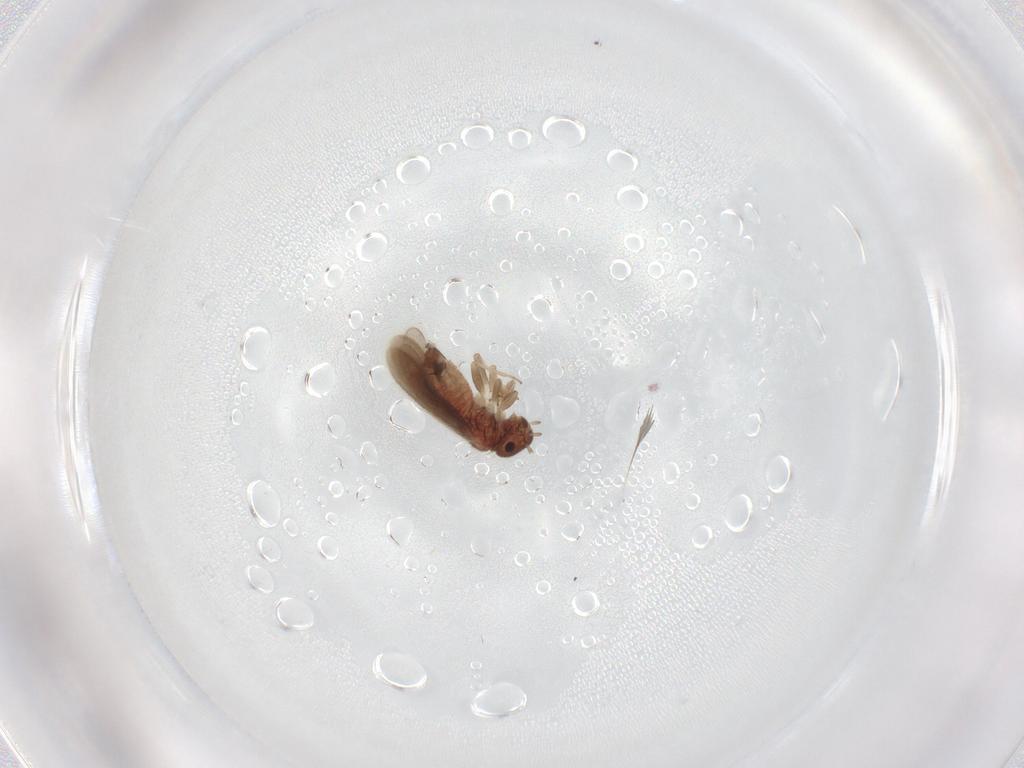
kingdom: Animalia
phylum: Arthropoda
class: Insecta
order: Psocodea
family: Archipsocidae
